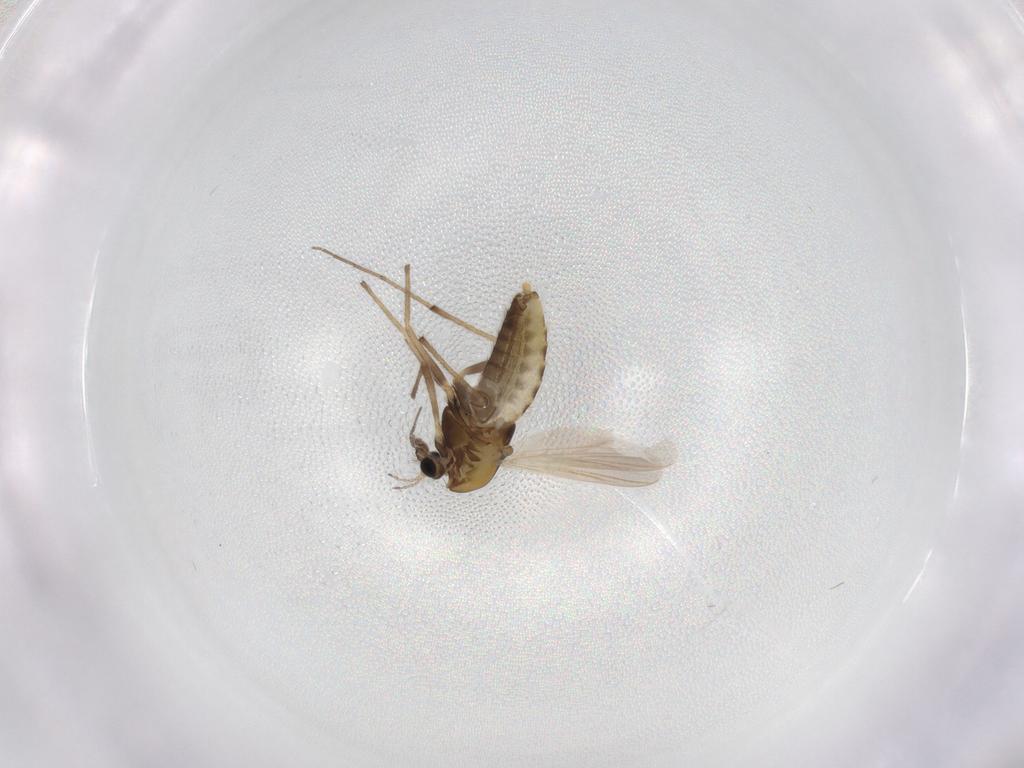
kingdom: Animalia
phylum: Arthropoda
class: Insecta
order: Diptera
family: Chironomidae
